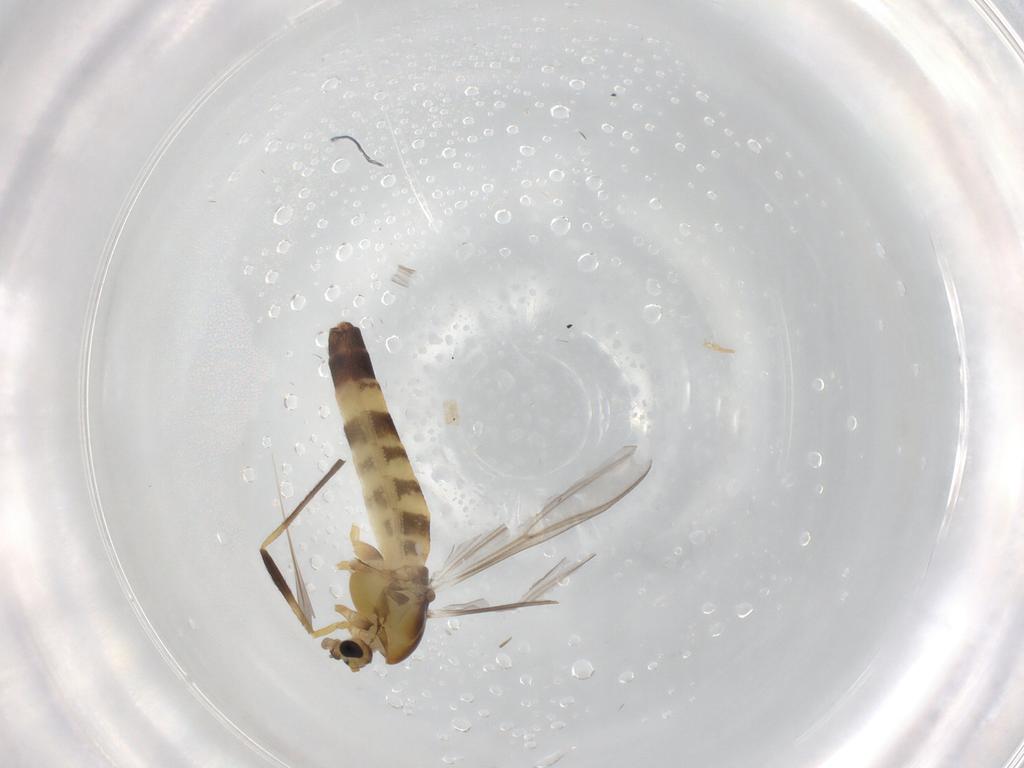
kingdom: Animalia
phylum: Arthropoda
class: Insecta
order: Diptera
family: Chironomidae
